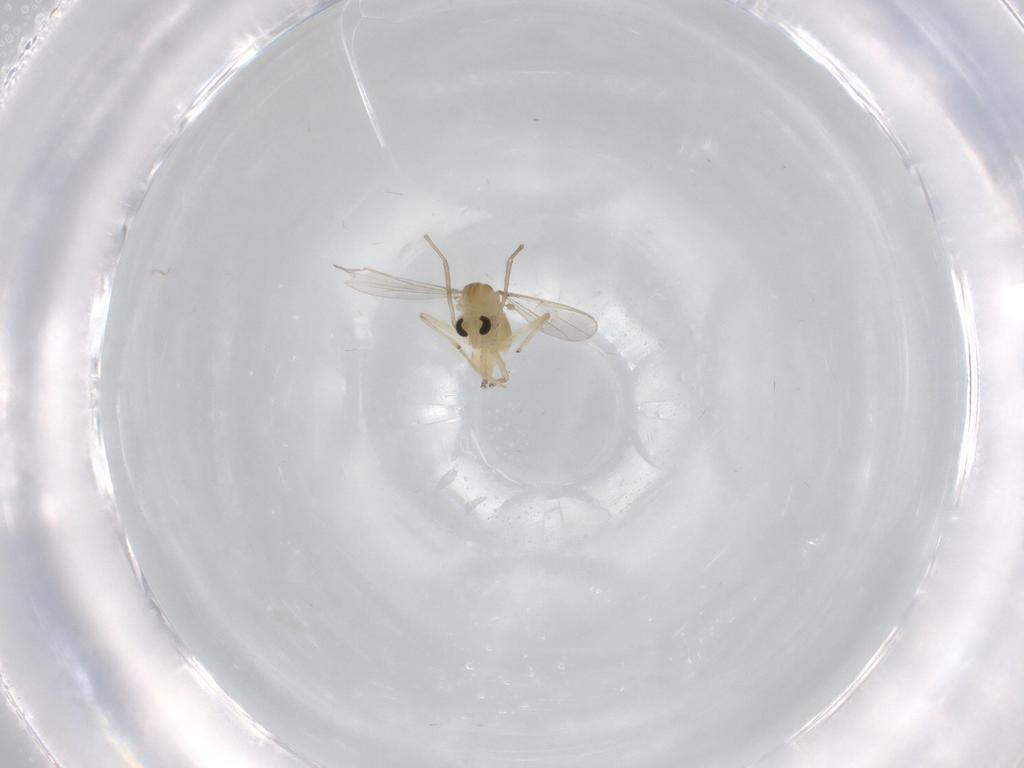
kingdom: Animalia
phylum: Arthropoda
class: Insecta
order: Diptera
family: Chironomidae
